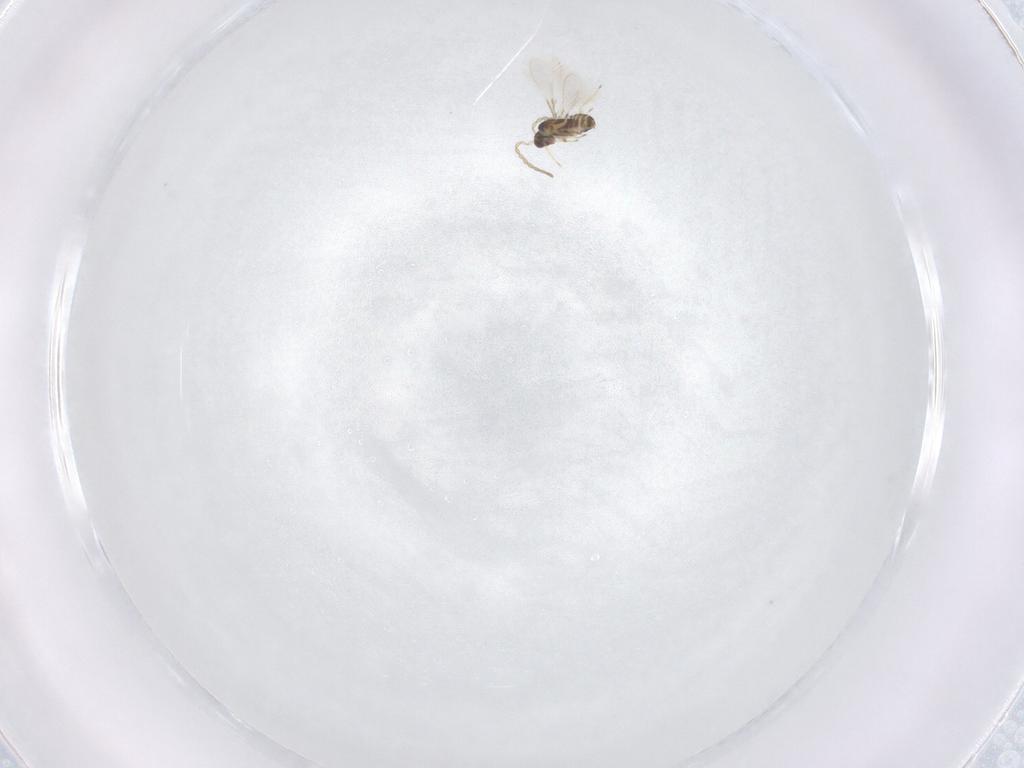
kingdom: Animalia
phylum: Arthropoda
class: Insecta
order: Hymenoptera
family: Mymaridae
